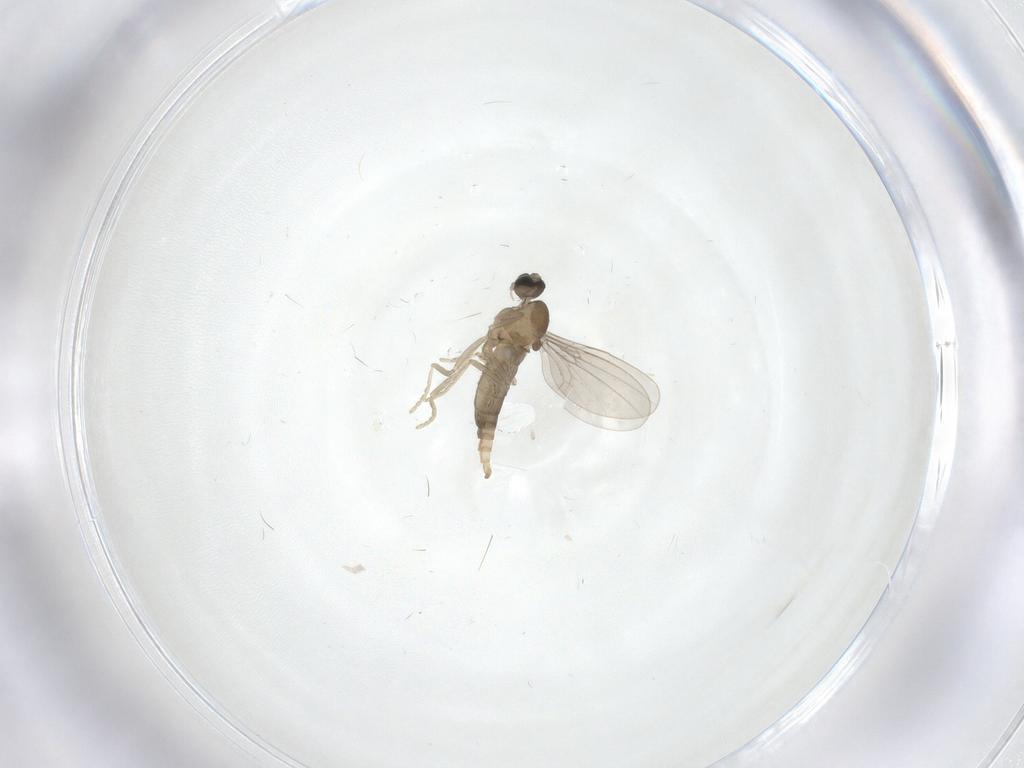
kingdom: Animalia
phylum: Arthropoda
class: Insecta
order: Diptera
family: Cecidomyiidae
